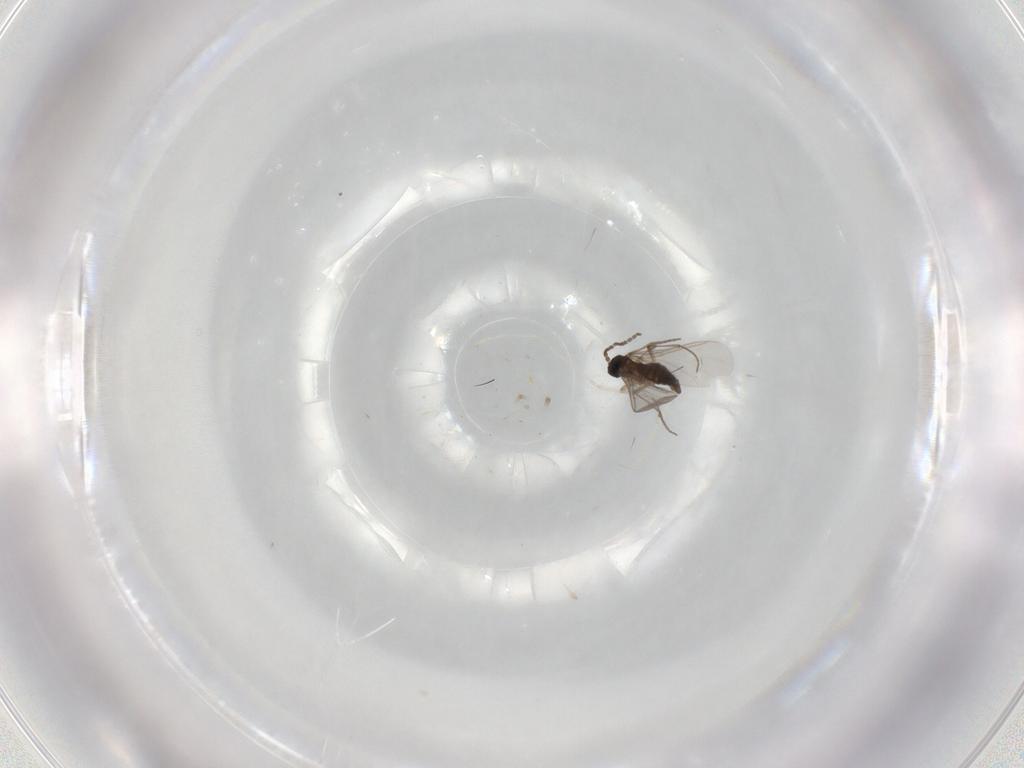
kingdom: Animalia
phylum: Arthropoda
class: Insecta
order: Diptera
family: Sciaridae
